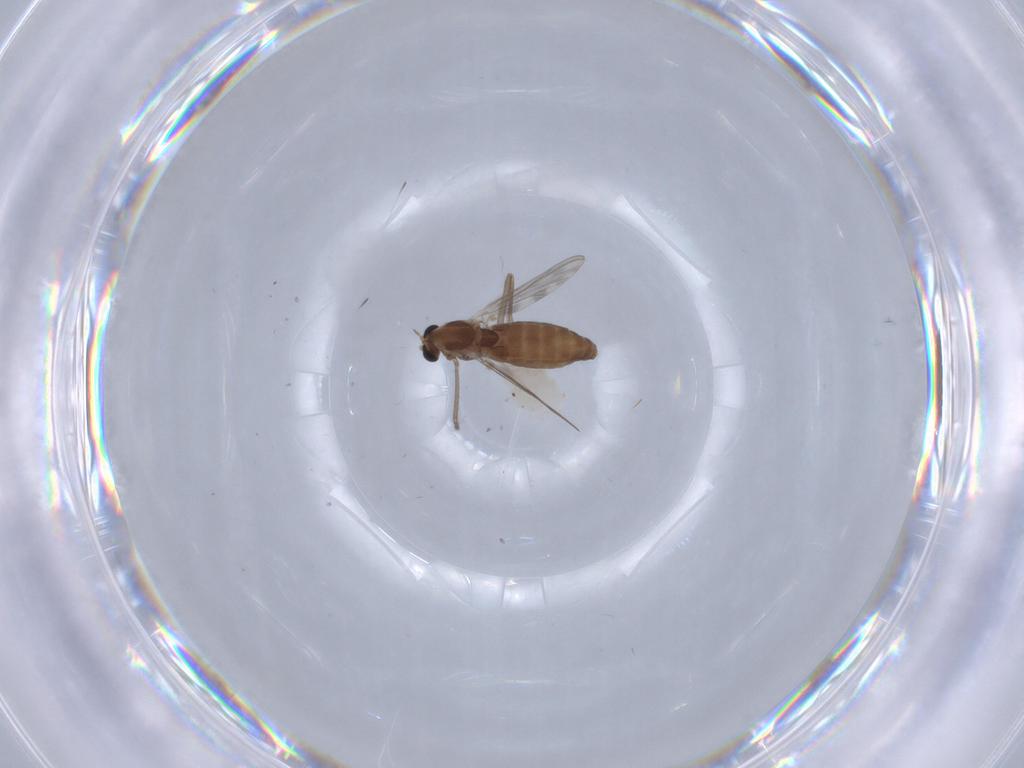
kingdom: Animalia
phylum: Arthropoda
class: Insecta
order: Diptera
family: Chironomidae
